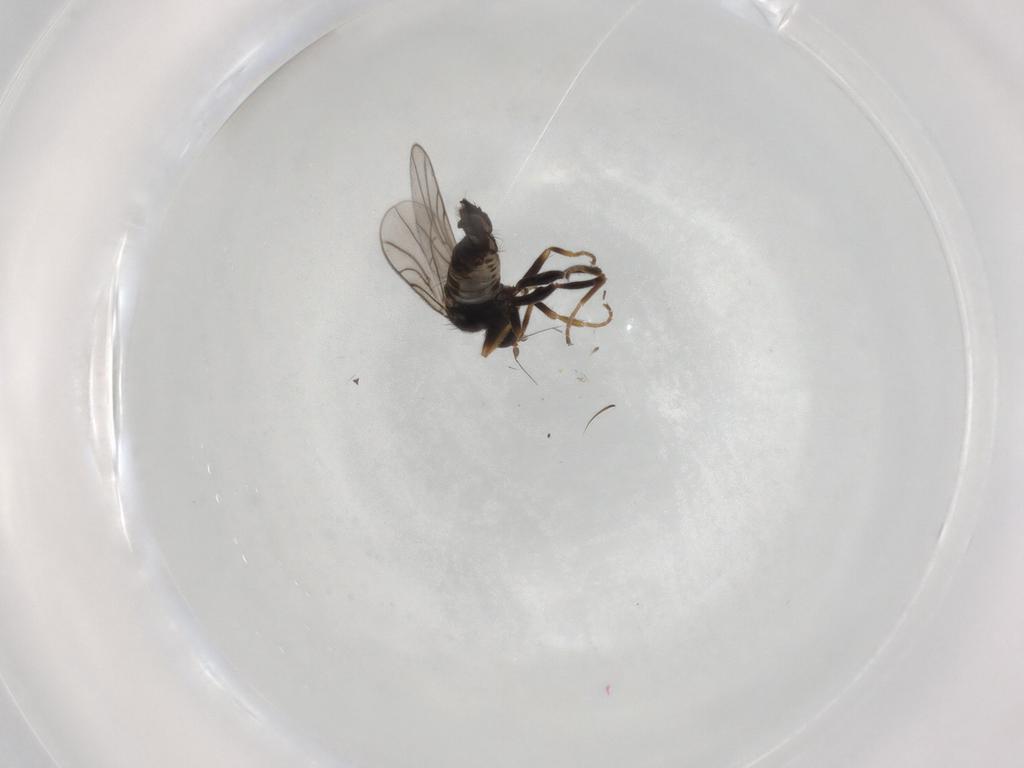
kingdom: Animalia
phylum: Arthropoda
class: Insecta
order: Diptera
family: Hybotidae
